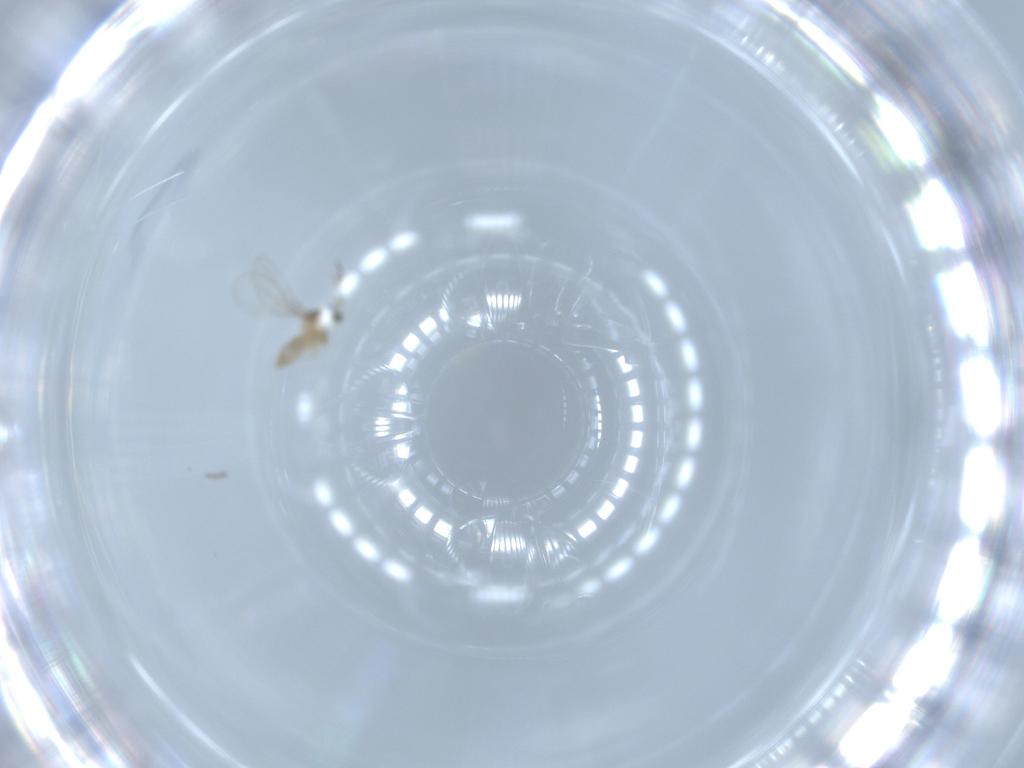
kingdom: Animalia
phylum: Arthropoda
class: Insecta
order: Diptera
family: Cecidomyiidae
